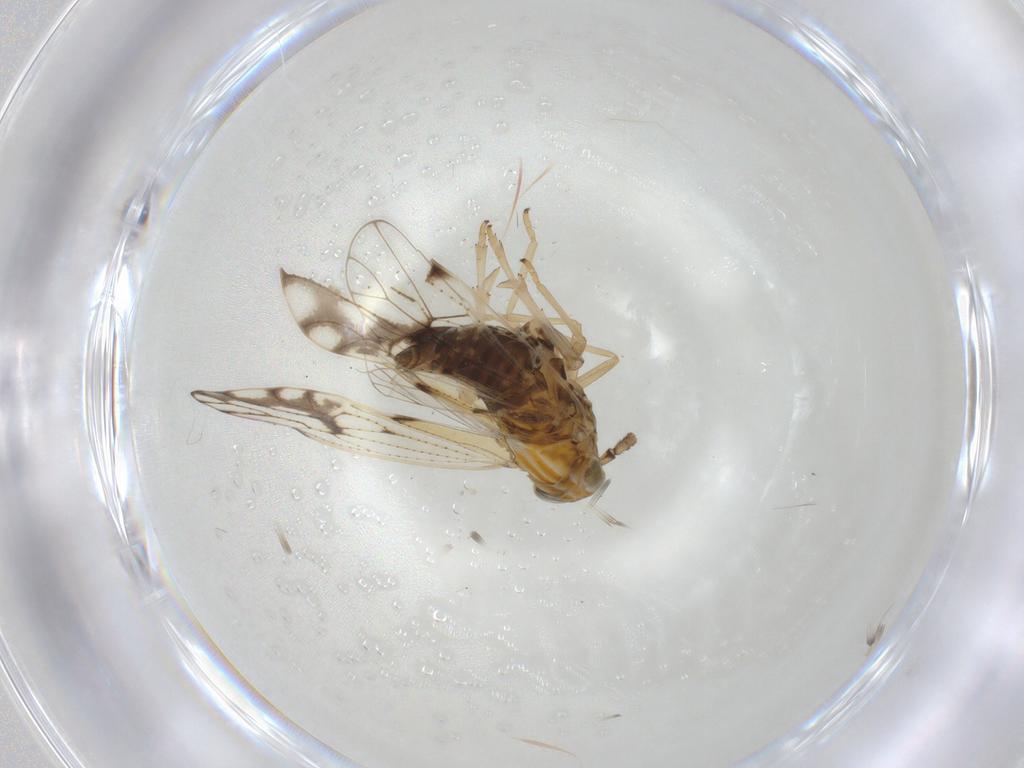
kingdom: Animalia
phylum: Arthropoda
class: Insecta
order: Hemiptera
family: Delphacidae
